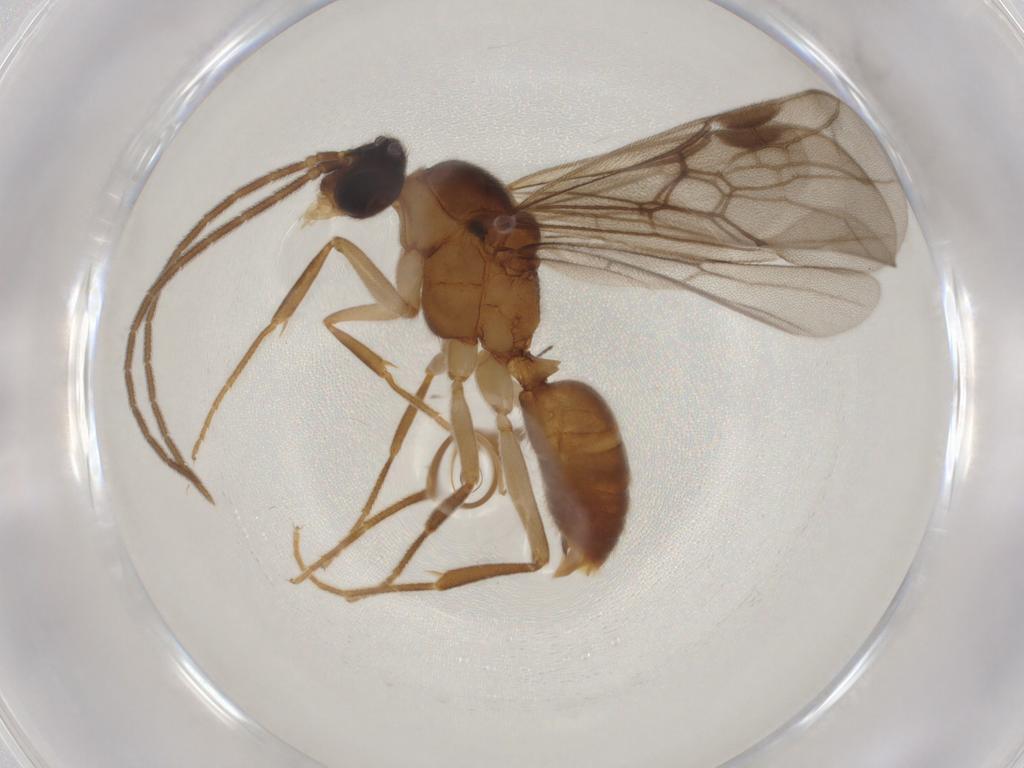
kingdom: Animalia
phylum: Arthropoda
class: Insecta
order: Hymenoptera
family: Formicidae
